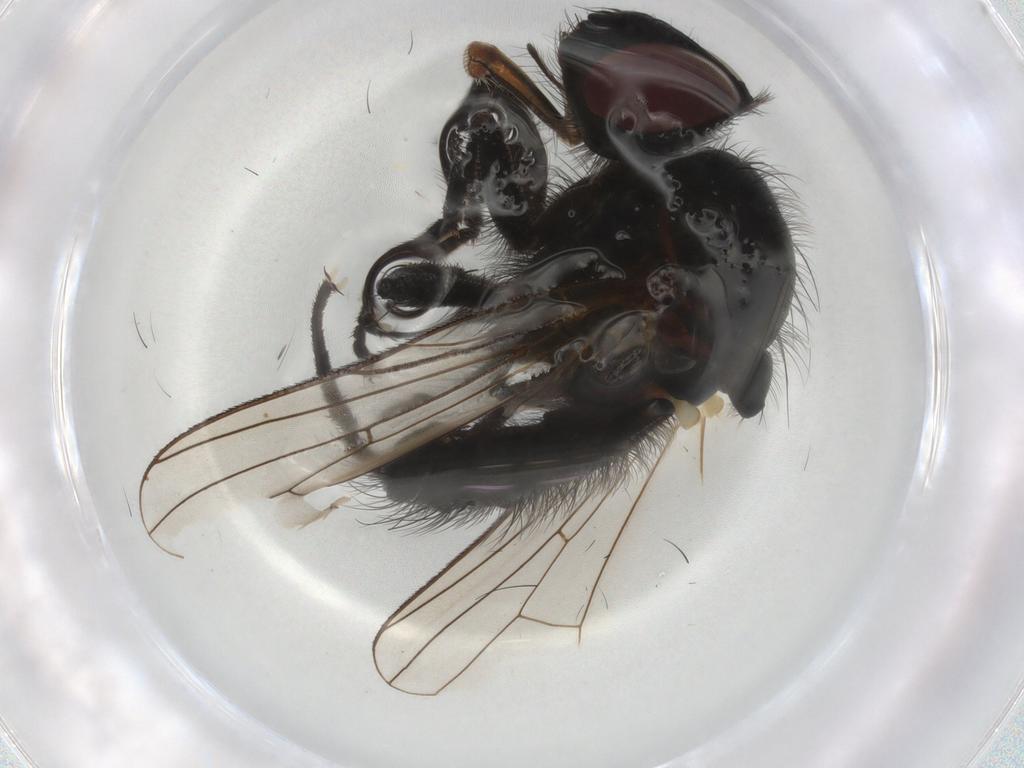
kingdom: Animalia
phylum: Arthropoda
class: Insecta
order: Diptera
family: Anthomyiidae
